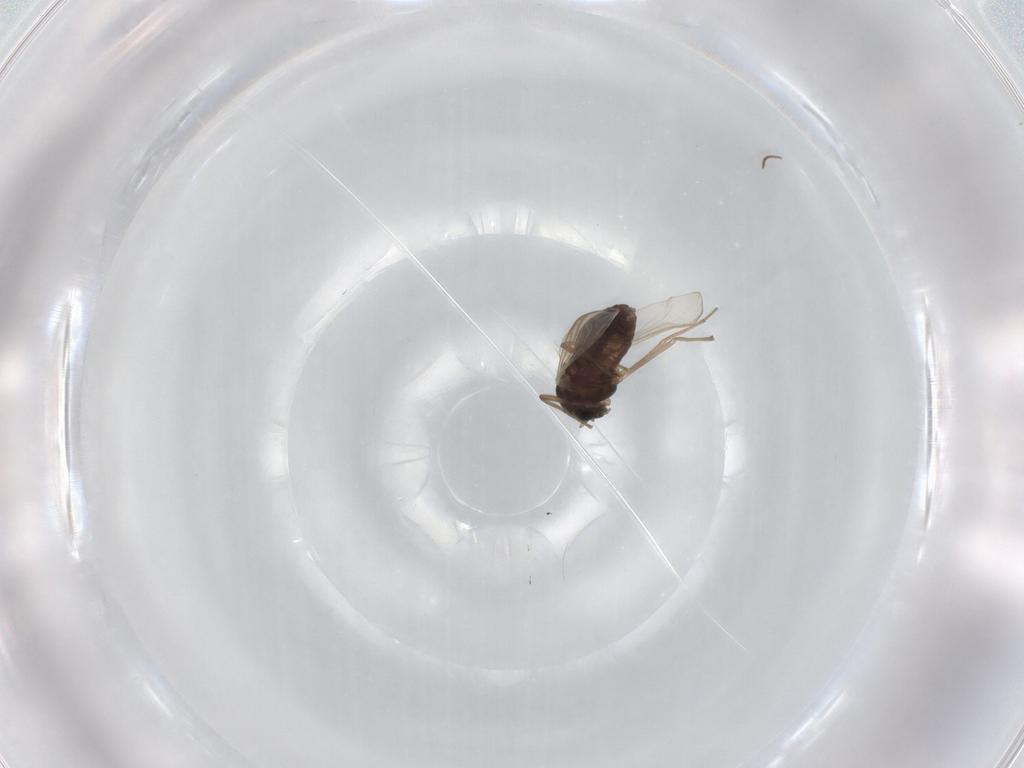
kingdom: Animalia
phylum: Arthropoda
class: Insecta
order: Diptera
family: Chironomidae
